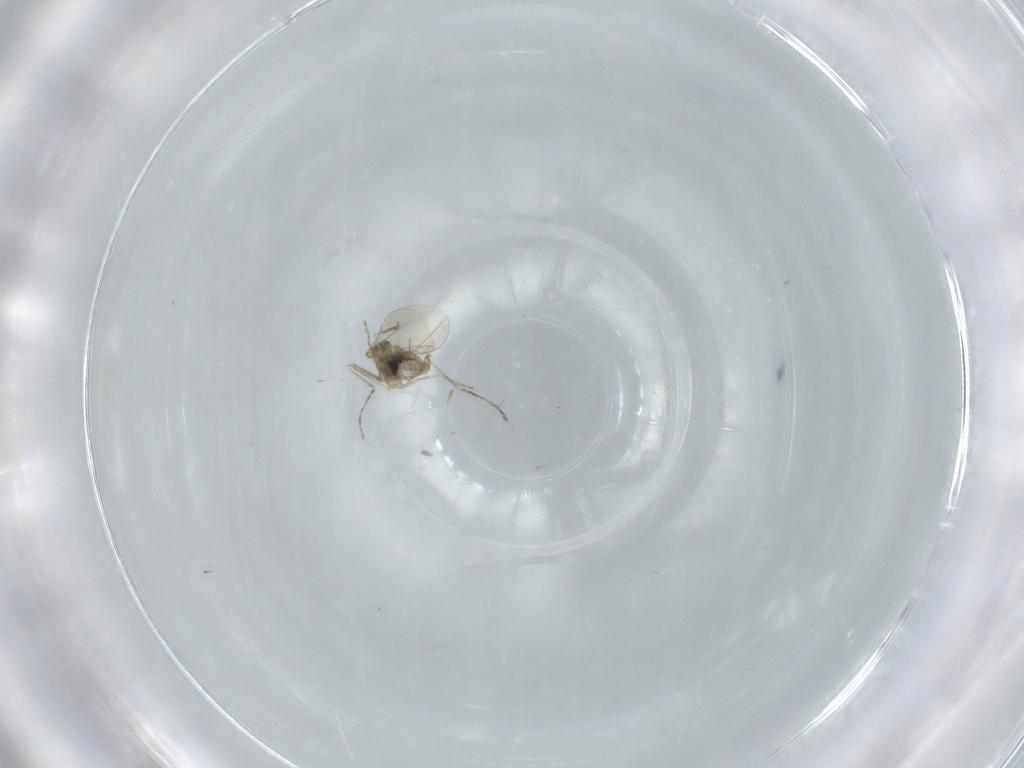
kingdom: Animalia
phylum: Arthropoda
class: Insecta
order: Diptera
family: Cecidomyiidae
